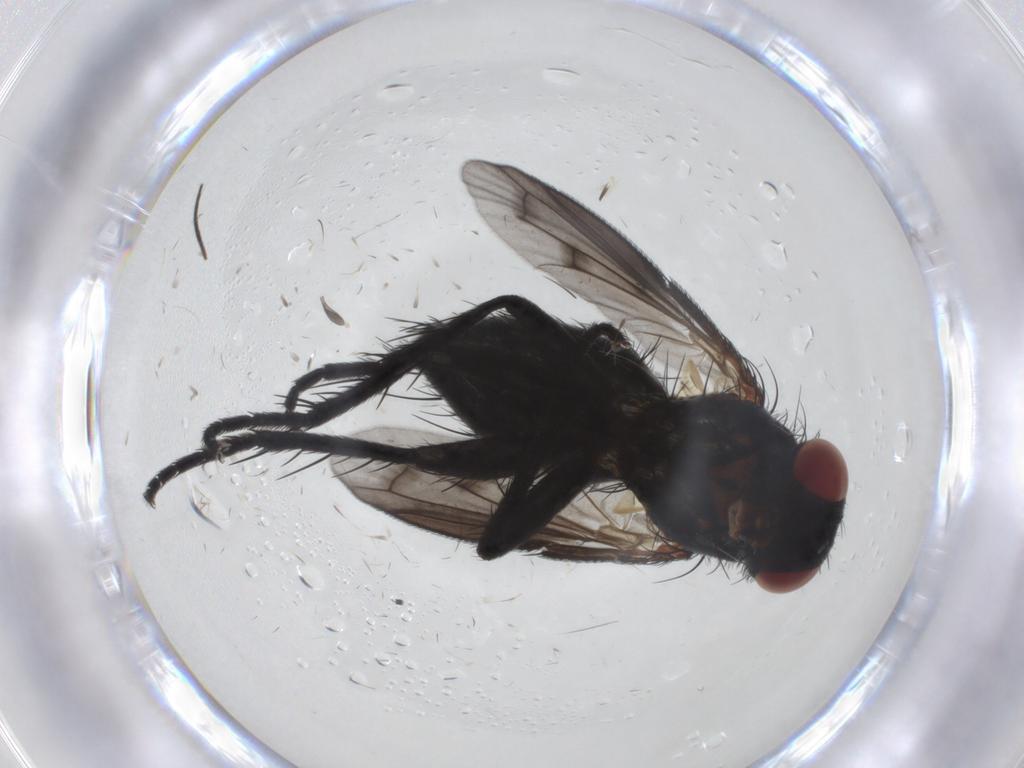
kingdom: Animalia
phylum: Arthropoda
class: Insecta
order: Diptera
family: Tachinidae
